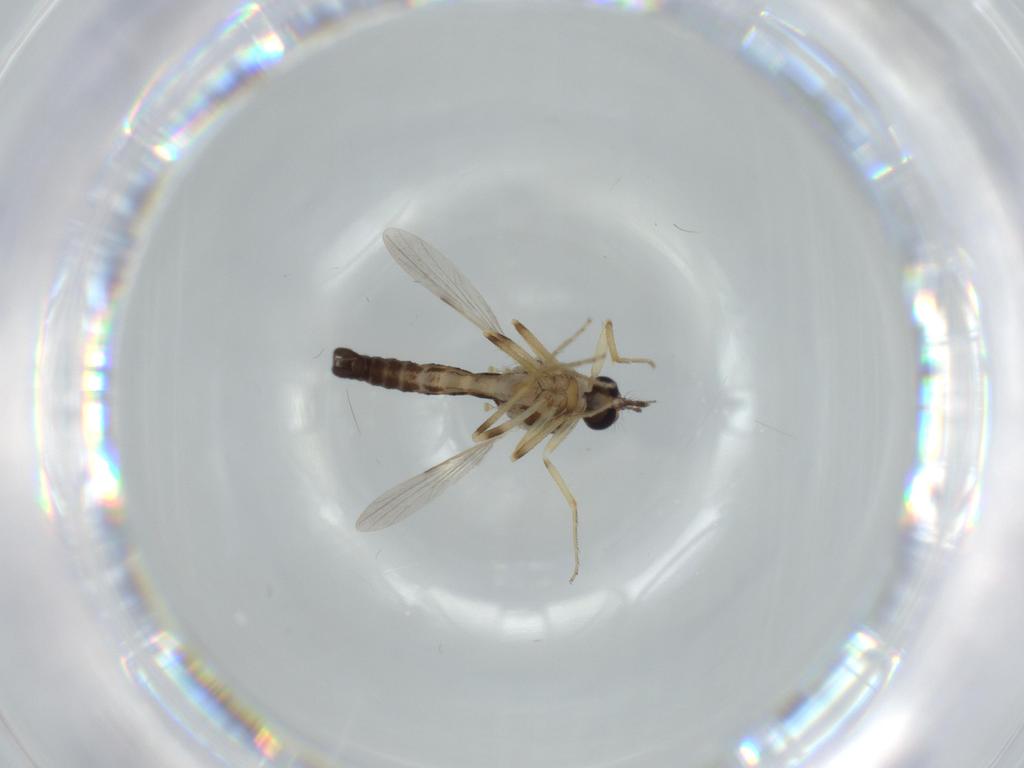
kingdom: Animalia
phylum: Arthropoda
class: Insecta
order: Diptera
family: Ceratopogonidae
